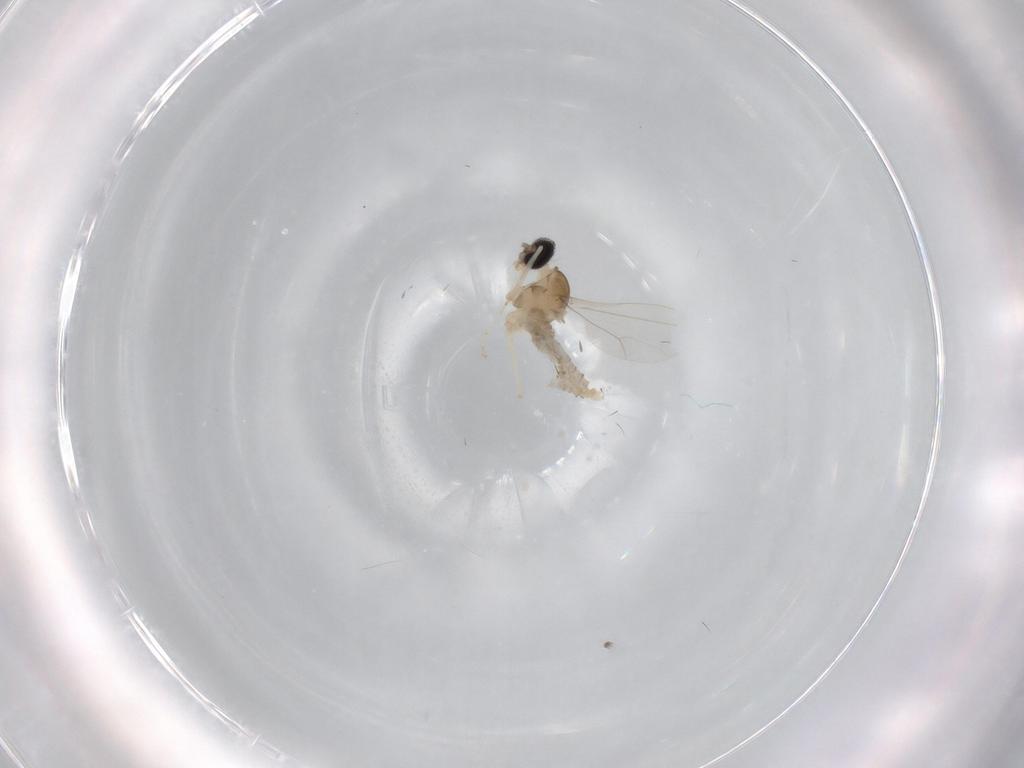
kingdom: Animalia
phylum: Arthropoda
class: Insecta
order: Diptera
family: Cecidomyiidae
